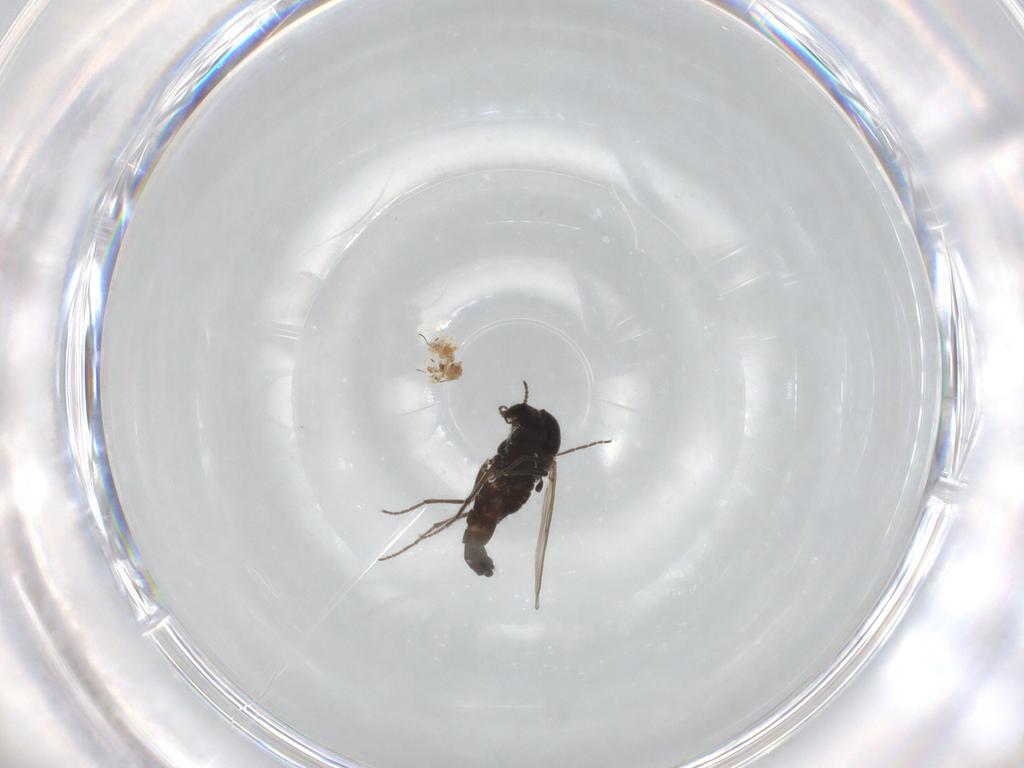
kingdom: Animalia
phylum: Arthropoda
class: Insecta
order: Diptera
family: Chironomidae
